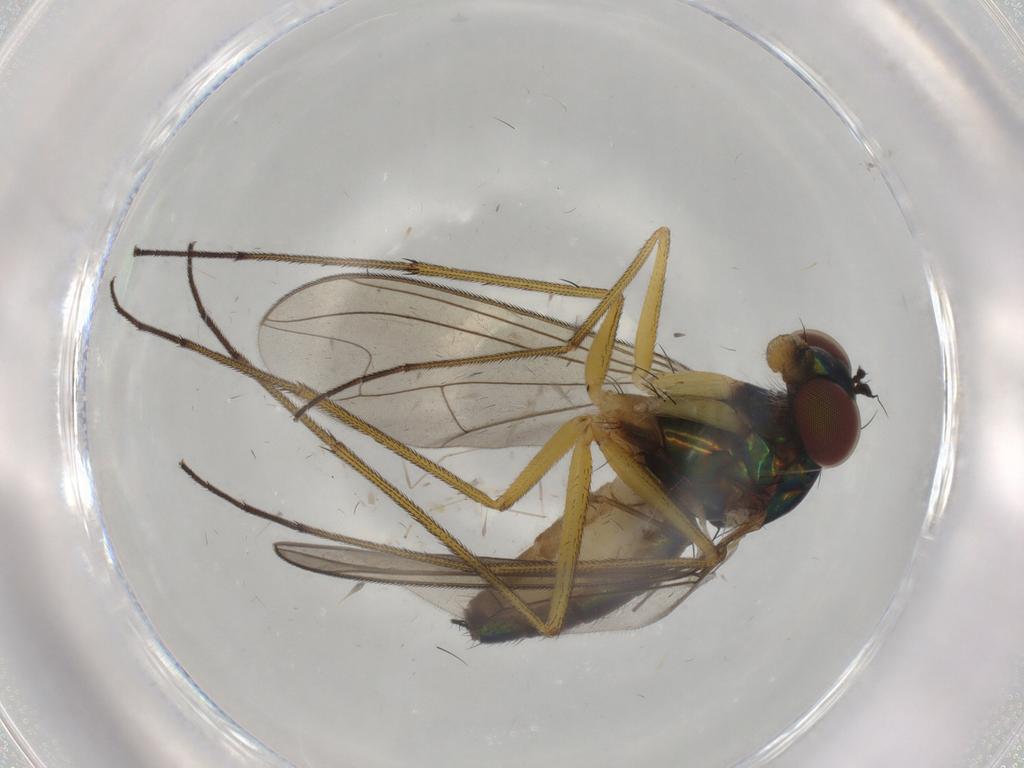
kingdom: Animalia
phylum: Arthropoda
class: Insecta
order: Diptera
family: Dolichopodidae
